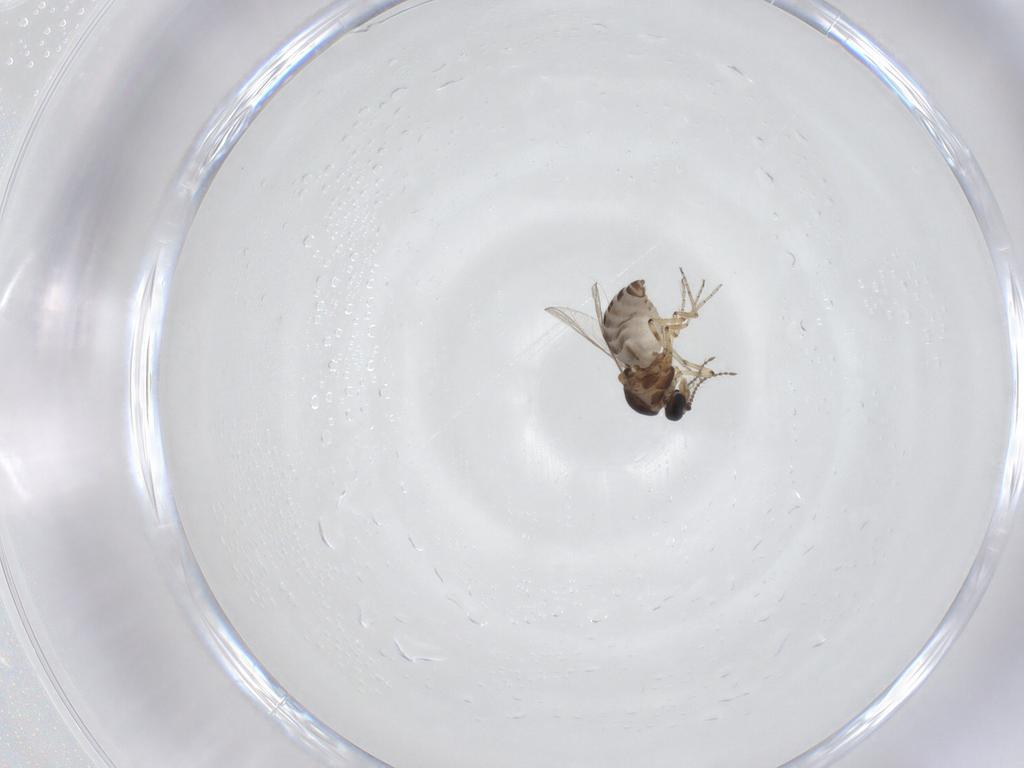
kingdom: Animalia
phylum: Arthropoda
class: Insecta
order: Diptera
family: Ceratopogonidae
